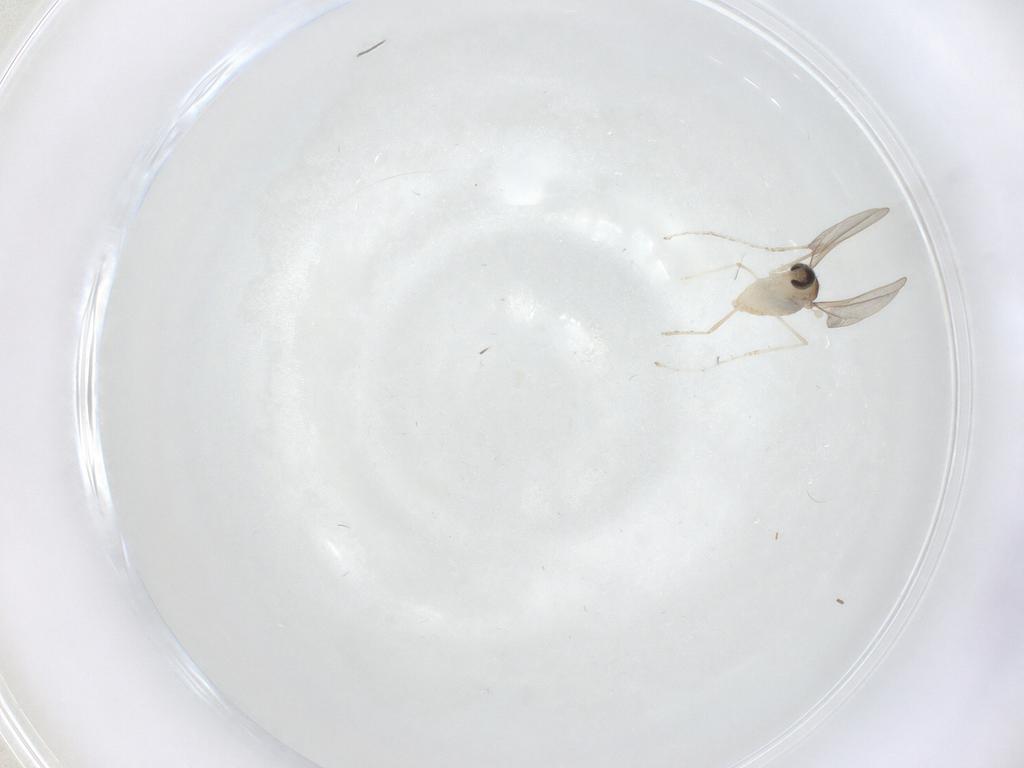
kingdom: Animalia
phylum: Arthropoda
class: Insecta
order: Diptera
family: Cecidomyiidae
